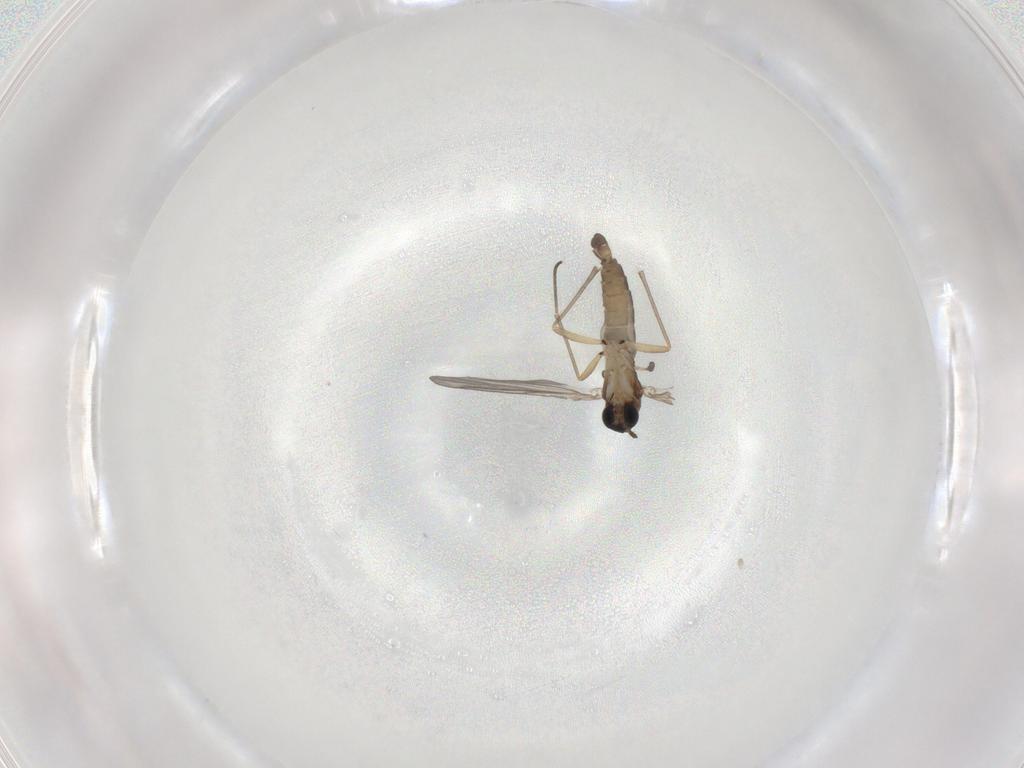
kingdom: Animalia
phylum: Arthropoda
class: Insecta
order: Diptera
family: Sciaridae
